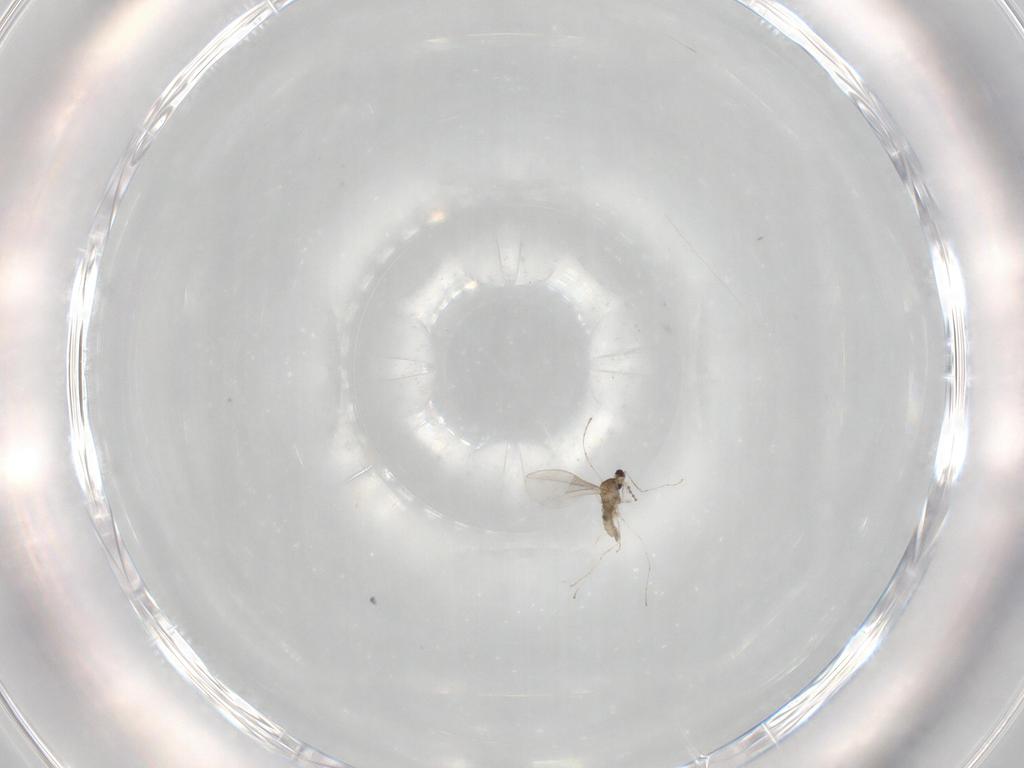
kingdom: Animalia
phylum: Arthropoda
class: Insecta
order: Diptera
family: Cecidomyiidae
